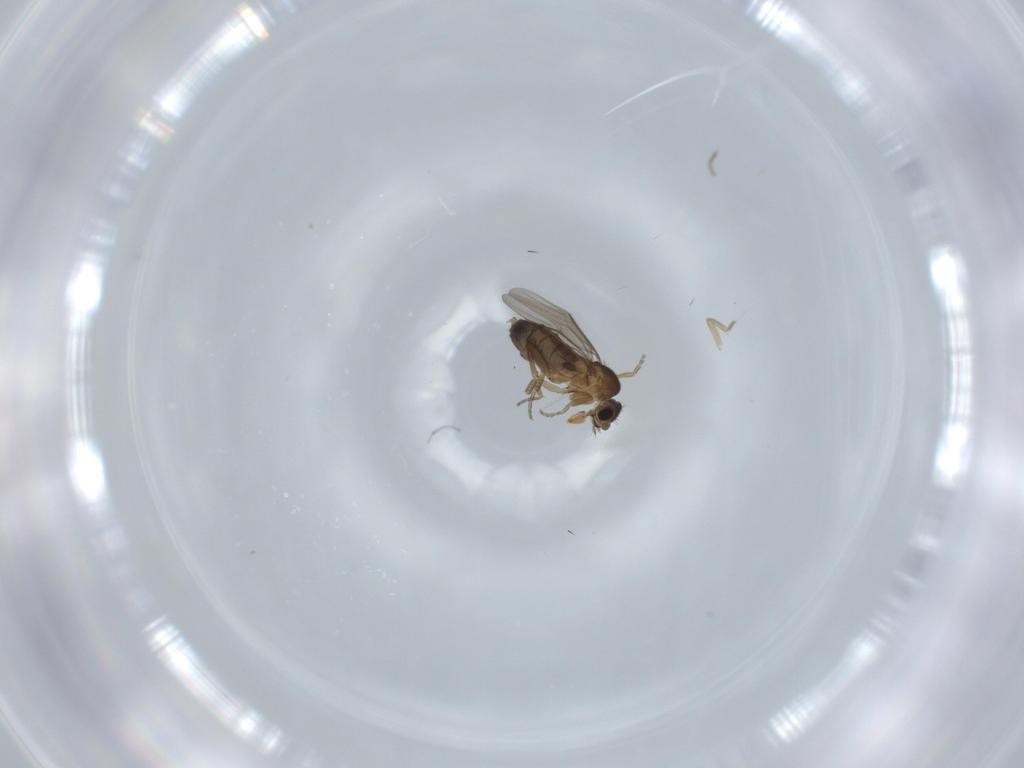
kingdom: Animalia
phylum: Arthropoda
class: Insecta
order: Diptera
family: Phoridae
